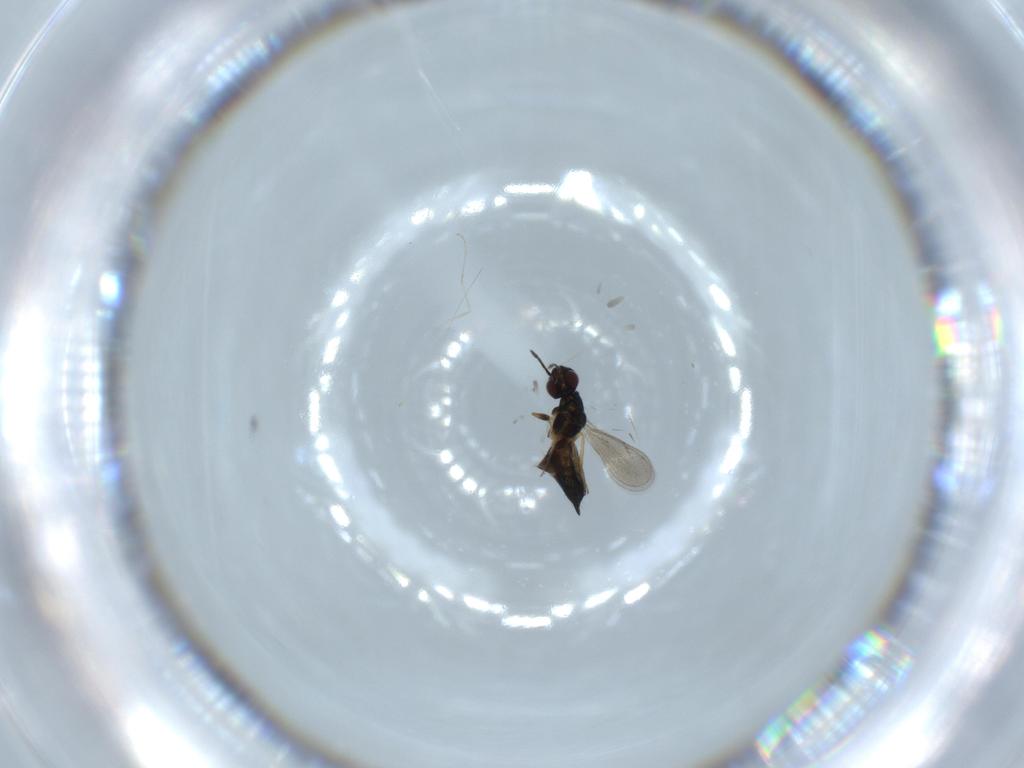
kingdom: Animalia
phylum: Arthropoda
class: Insecta
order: Hymenoptera
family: Eulophidae
